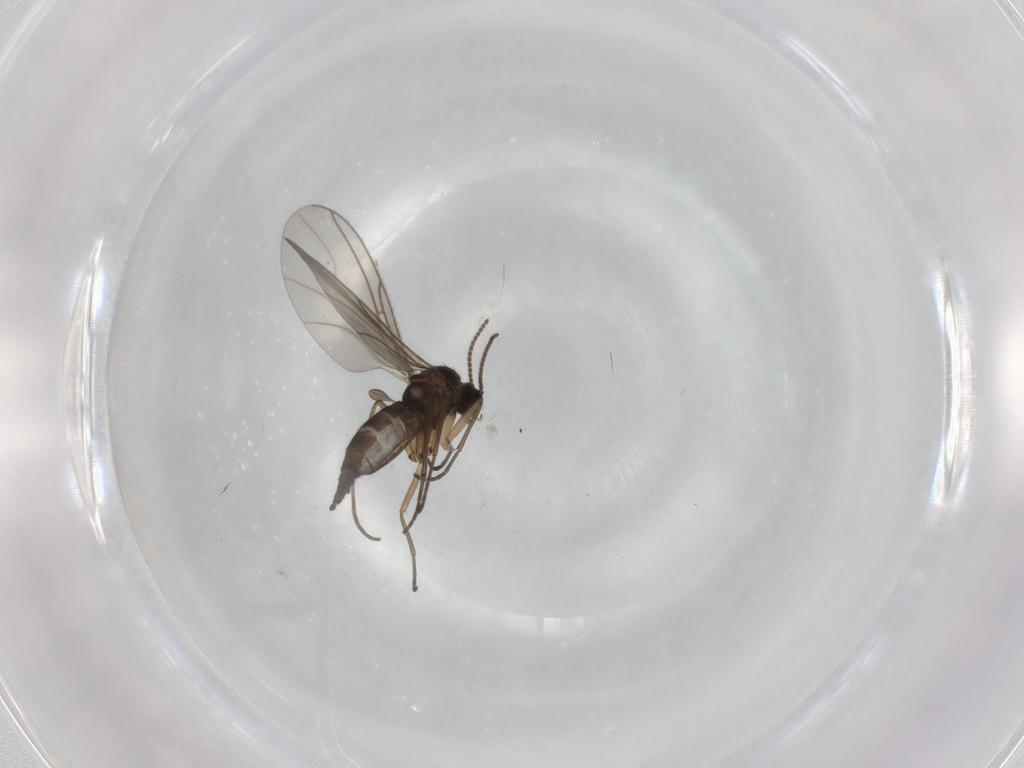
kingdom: Animalia
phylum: Arthropoda
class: Insecta
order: Diptera
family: Sciaridae
